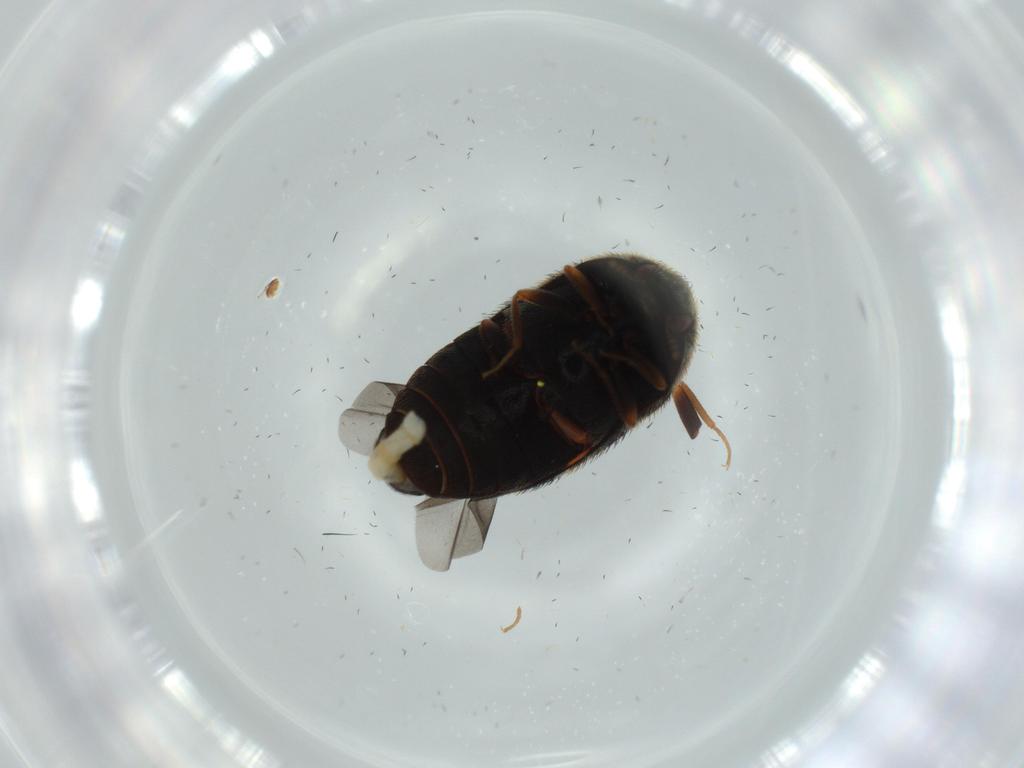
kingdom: Animalia
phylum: Arthropoda
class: Insecta
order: Coleoptera
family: Dermestidae
